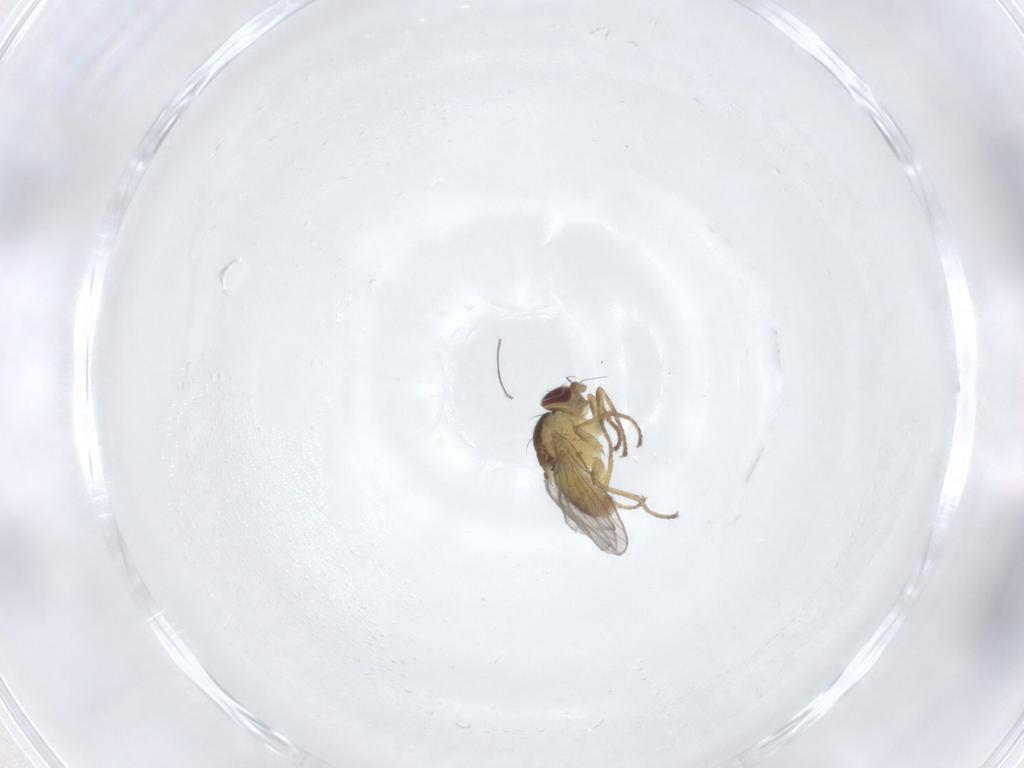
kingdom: Animalia
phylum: Arthropoda
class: Insecta
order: Diptera
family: Agromyzidae
